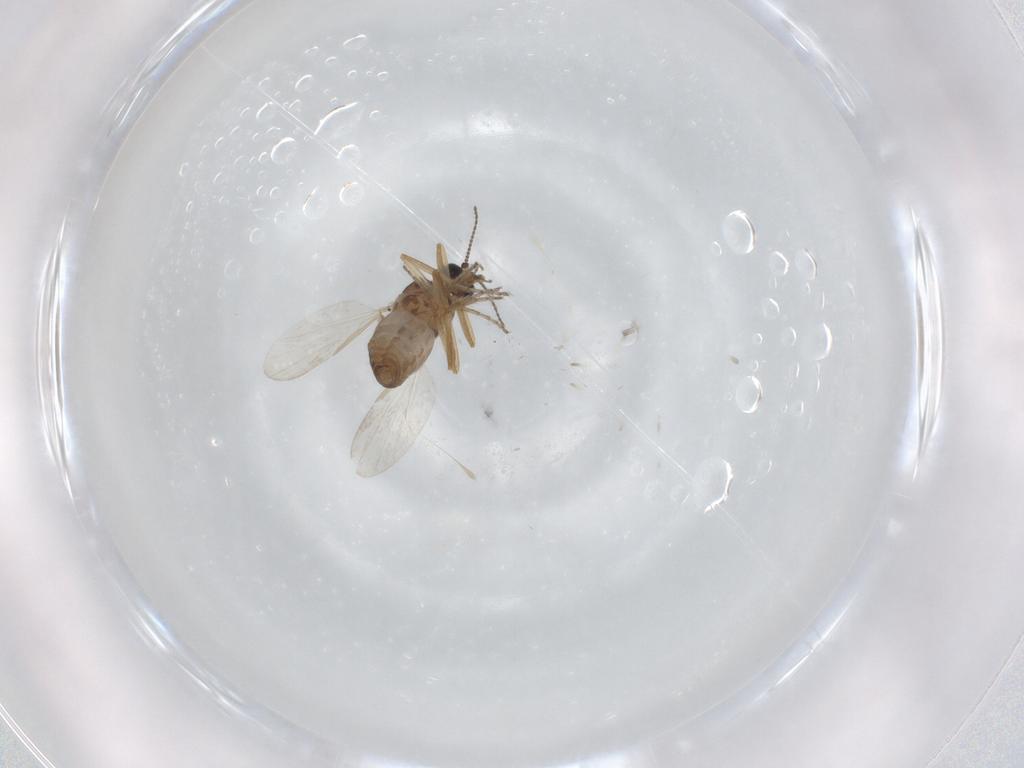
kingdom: Animalia
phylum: Arthropoda
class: Insecta
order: Diptera
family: Ceratopogonidae
